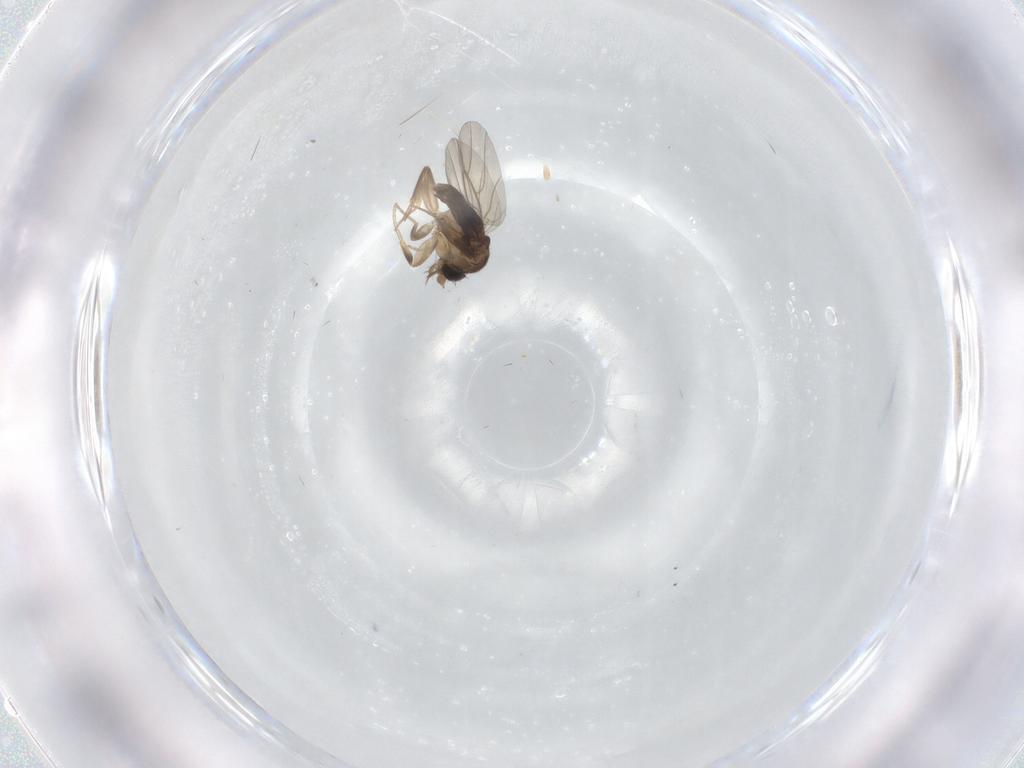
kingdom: Animalia
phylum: Arthropoda
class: Insecta
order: Diptera
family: Phoridae
